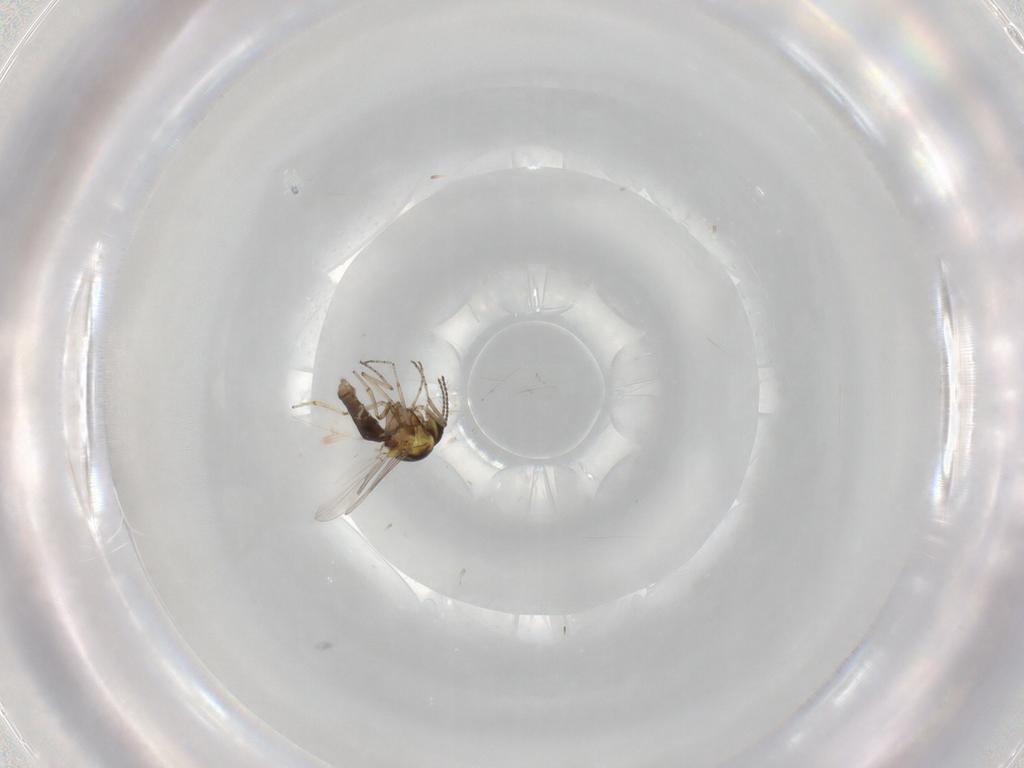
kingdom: Animalia
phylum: Arthropoda
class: Insecta
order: Diptera
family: Ceratopogonidae
